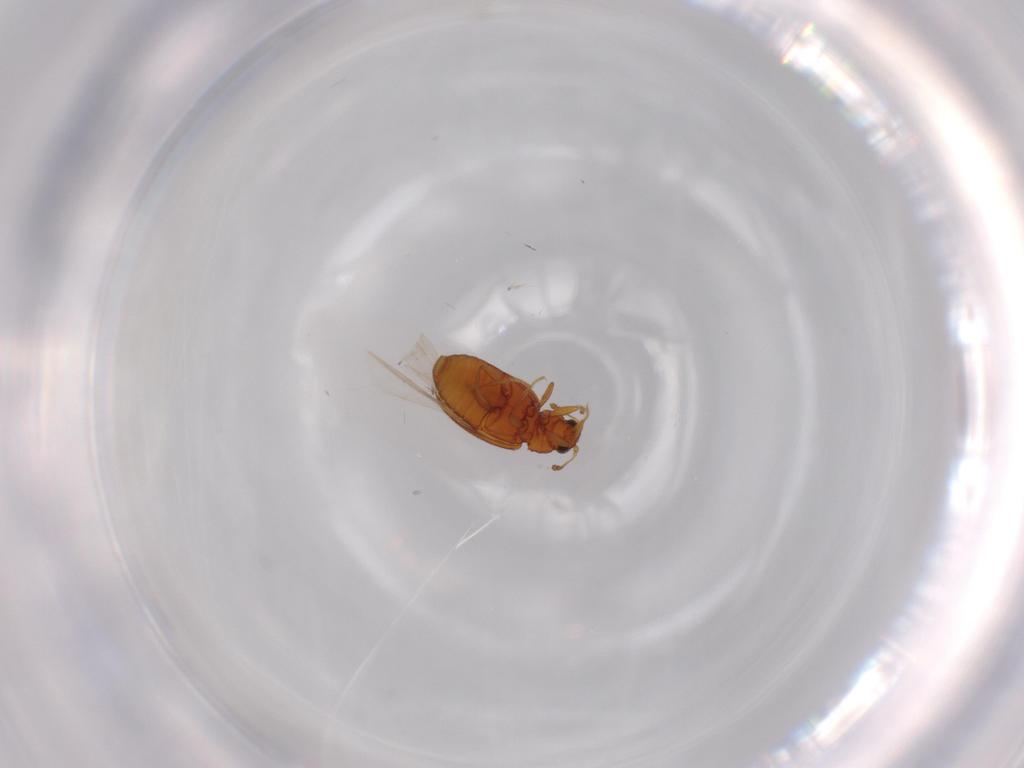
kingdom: Animalia
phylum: Arthropoda
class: Insecta
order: Coleoptera
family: Latridiidae
